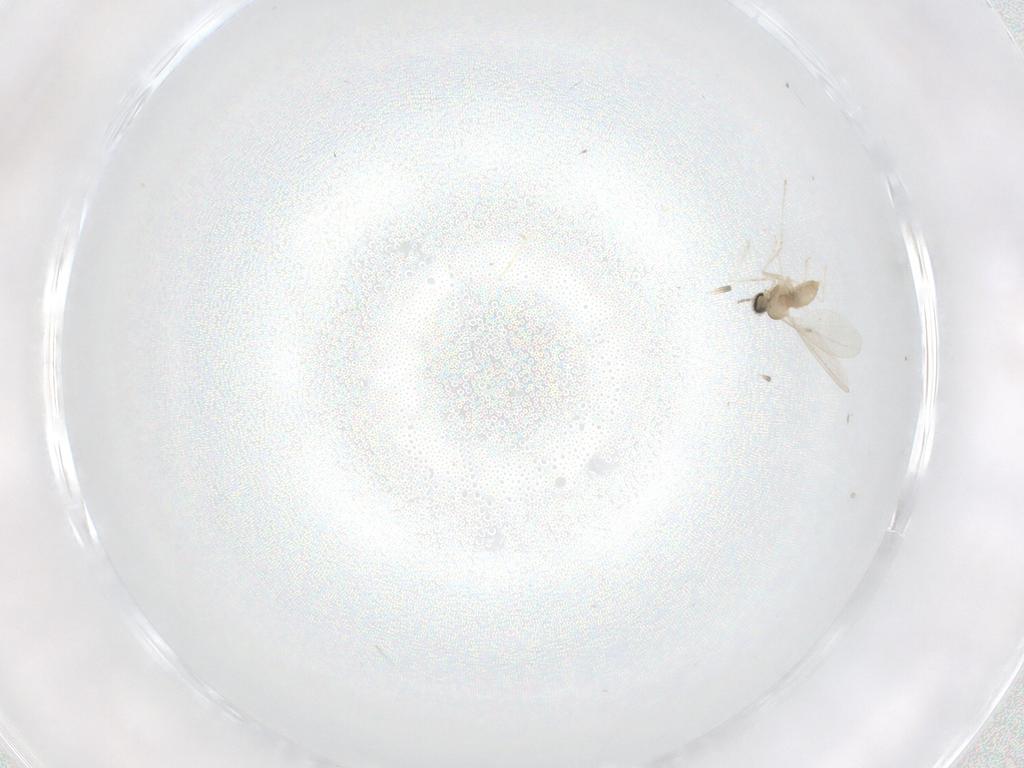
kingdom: Animalia
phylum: Arthropoda
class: Insecta
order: Diptera
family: Cecidomyiidae
